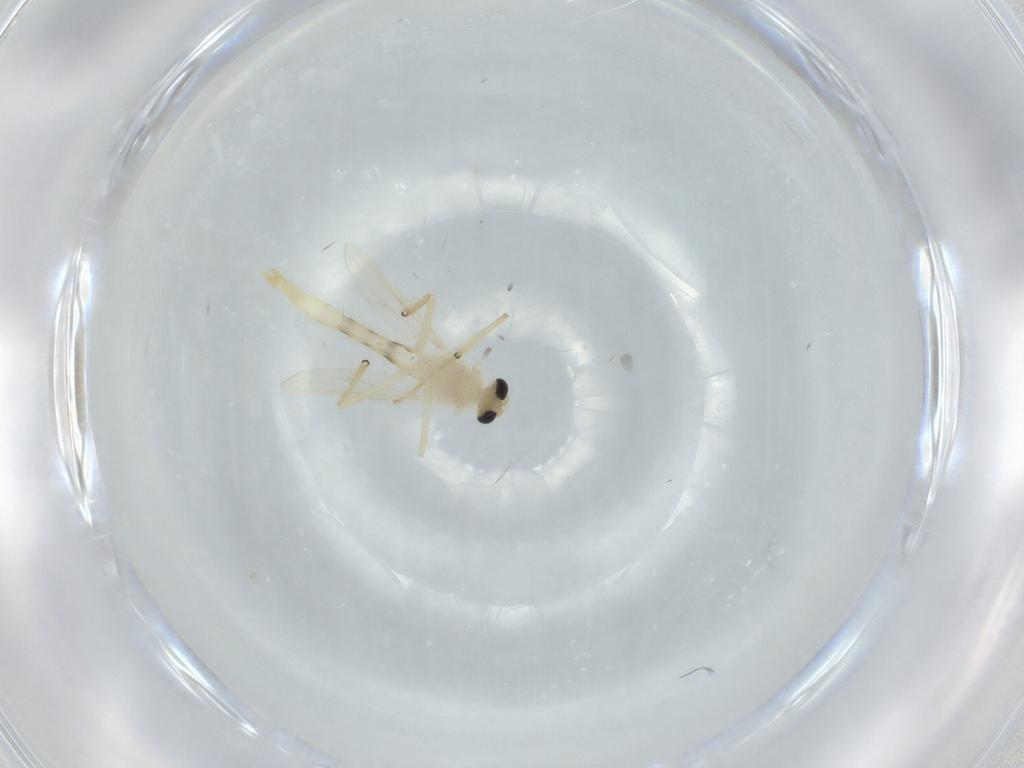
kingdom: Animalia
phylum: Arthropoda
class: Insecta
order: Diptera
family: Chironomidae
